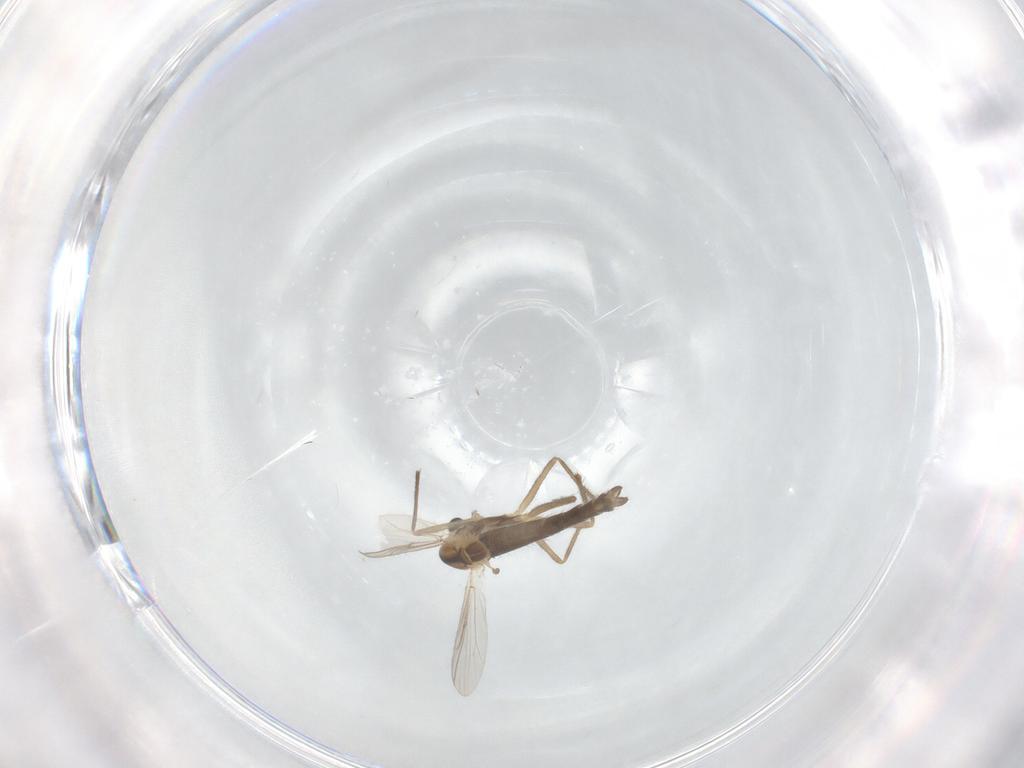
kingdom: Animalia
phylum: Arthropoda
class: Insecta
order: Diptera
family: Chironomidae
